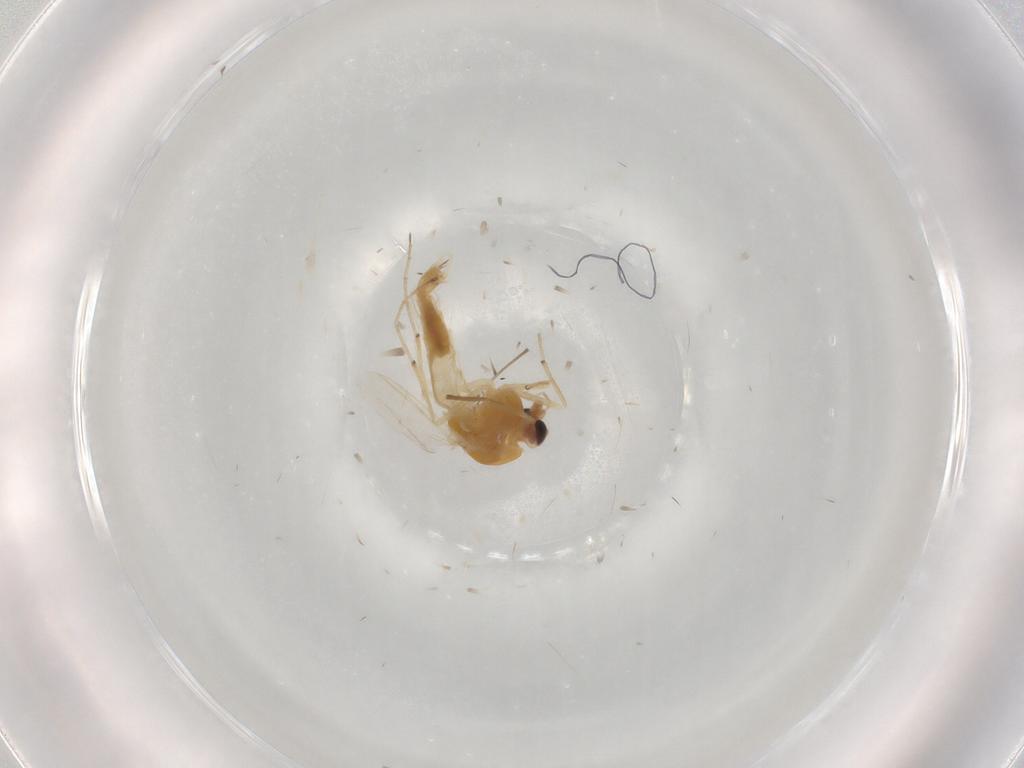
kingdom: Animalia
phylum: Arthropoda
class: Insecta
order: Diptera
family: Chironomidae
